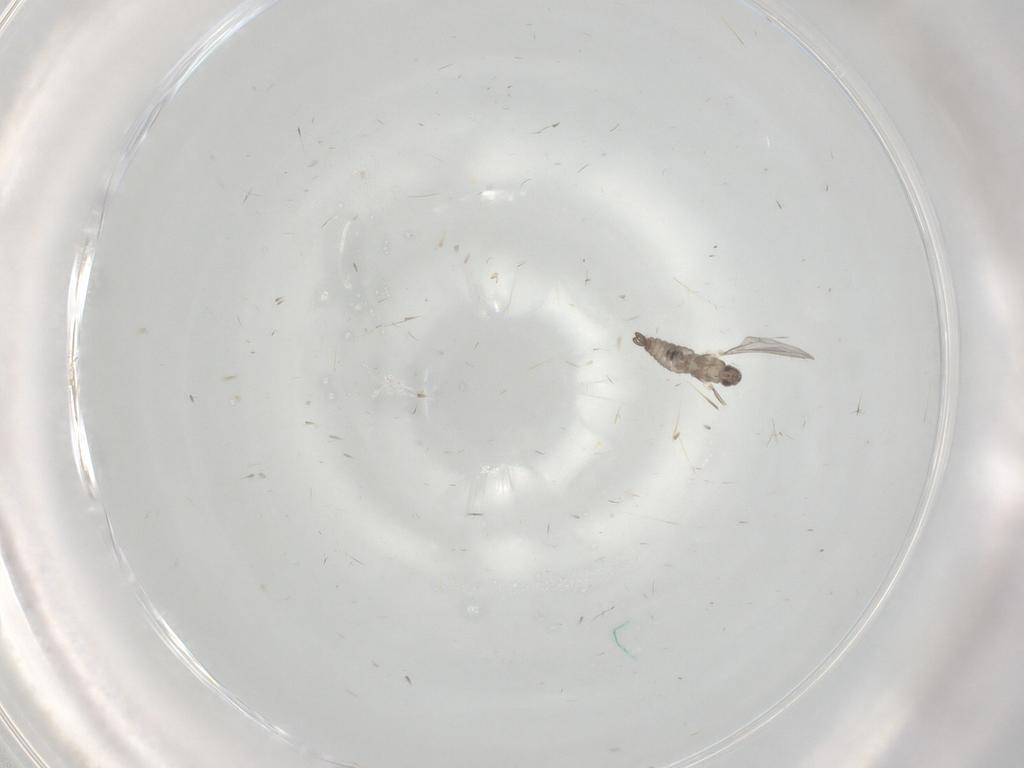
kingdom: Animalia
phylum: Arthropoda
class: Insecta
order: Diptera
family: Cecidomyiidae
